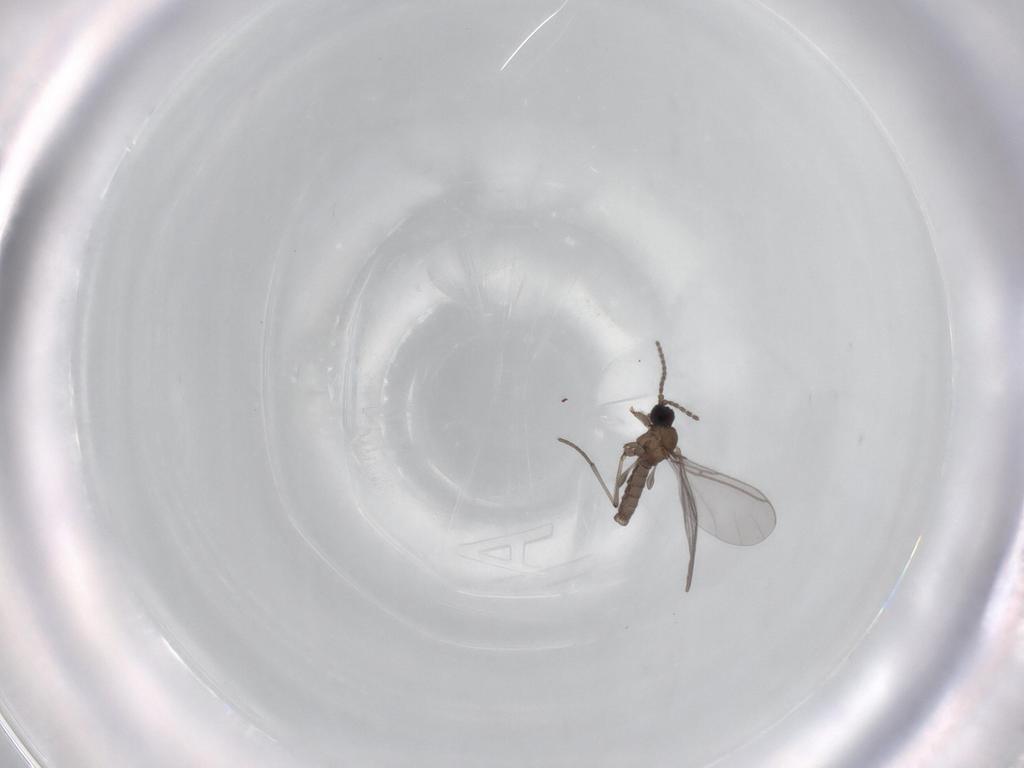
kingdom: Animalia
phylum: Arthropoda
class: Insecta
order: Diptera
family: Sciaridae
